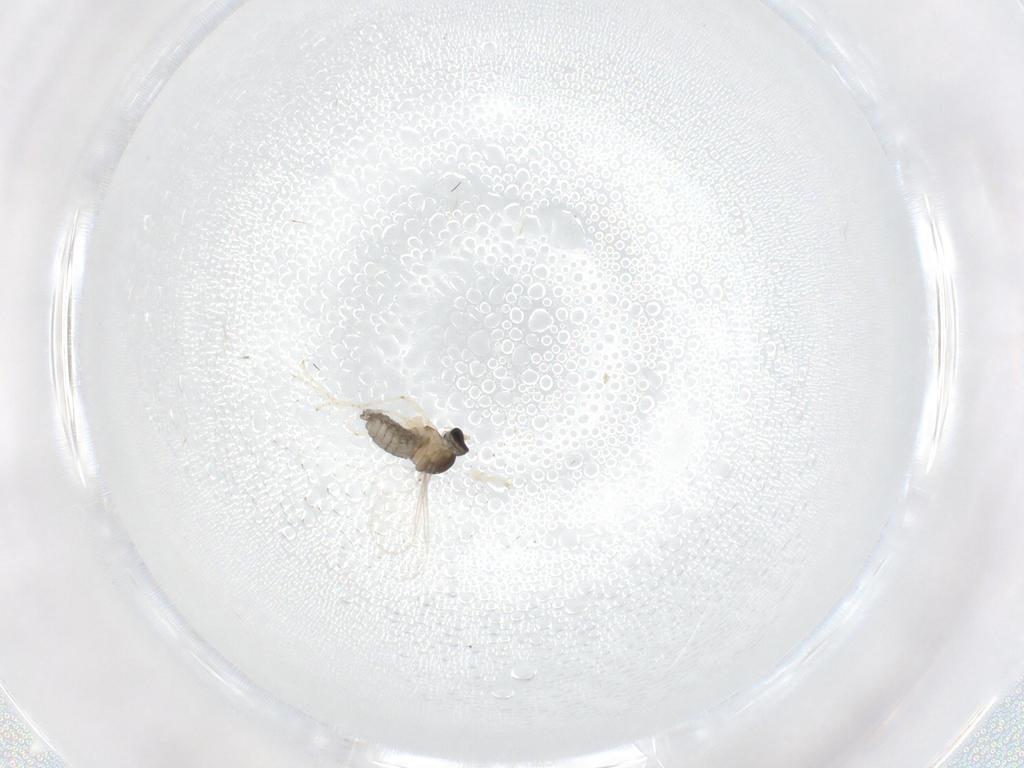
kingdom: Animalia
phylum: Arthropoda
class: Insecta
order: Diptera
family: Cecidomyiidae
